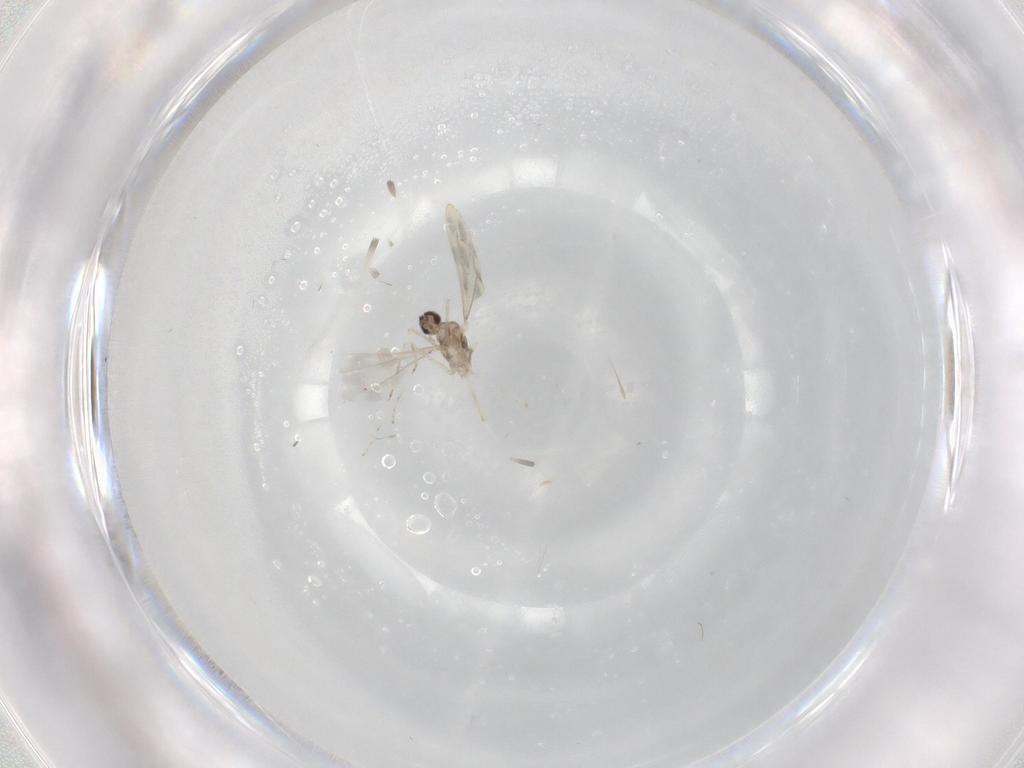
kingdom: Animalia
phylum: Arthropoda
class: Insecta
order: Diptera
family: Cecidomyiidae
